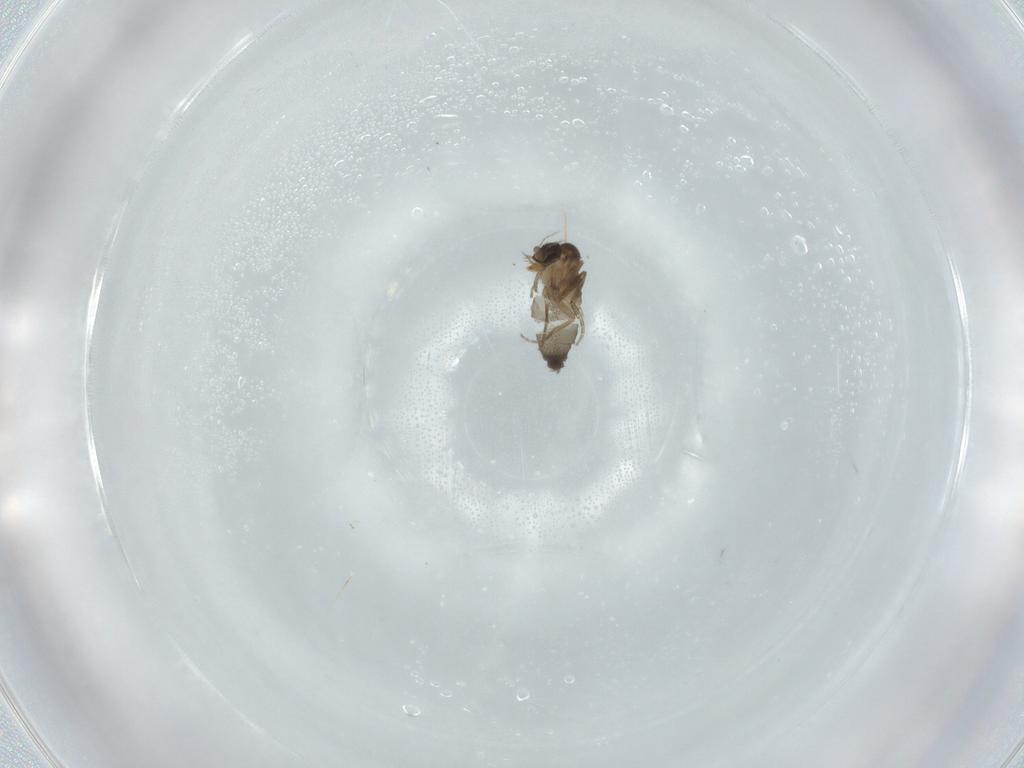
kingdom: Animalia
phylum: Arthropoda
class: Insecta
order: Diptera
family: Phoridae
